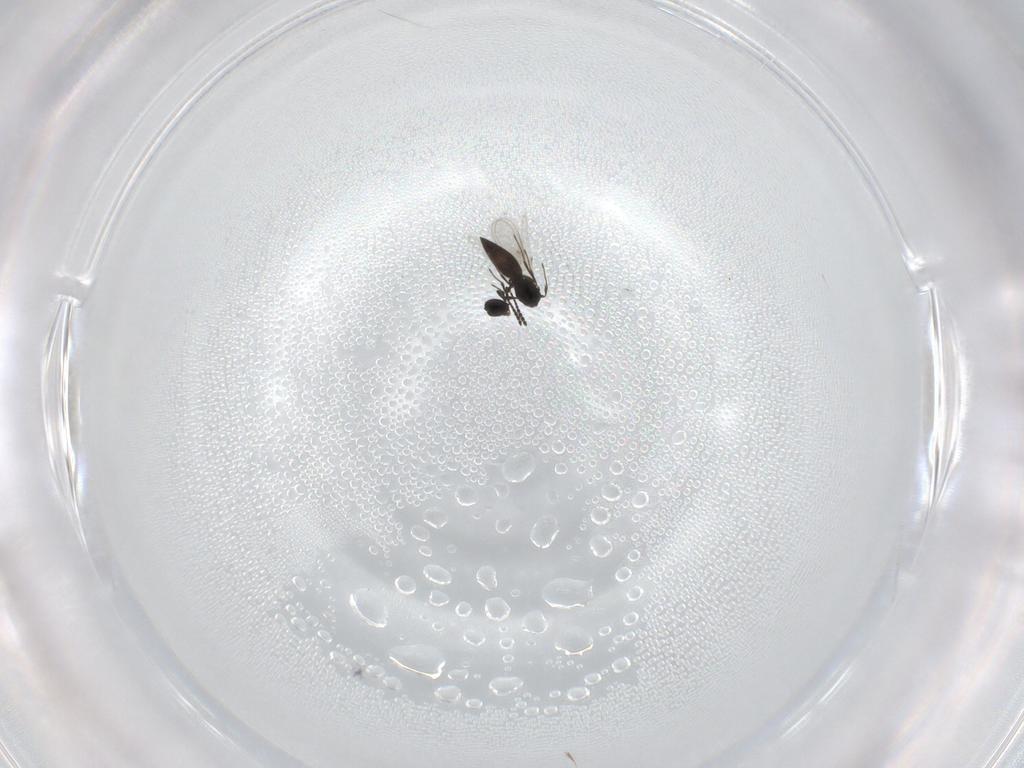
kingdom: Animalia
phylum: Arthropoda
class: Insecta
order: Hymenoptera
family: Scelionidae
